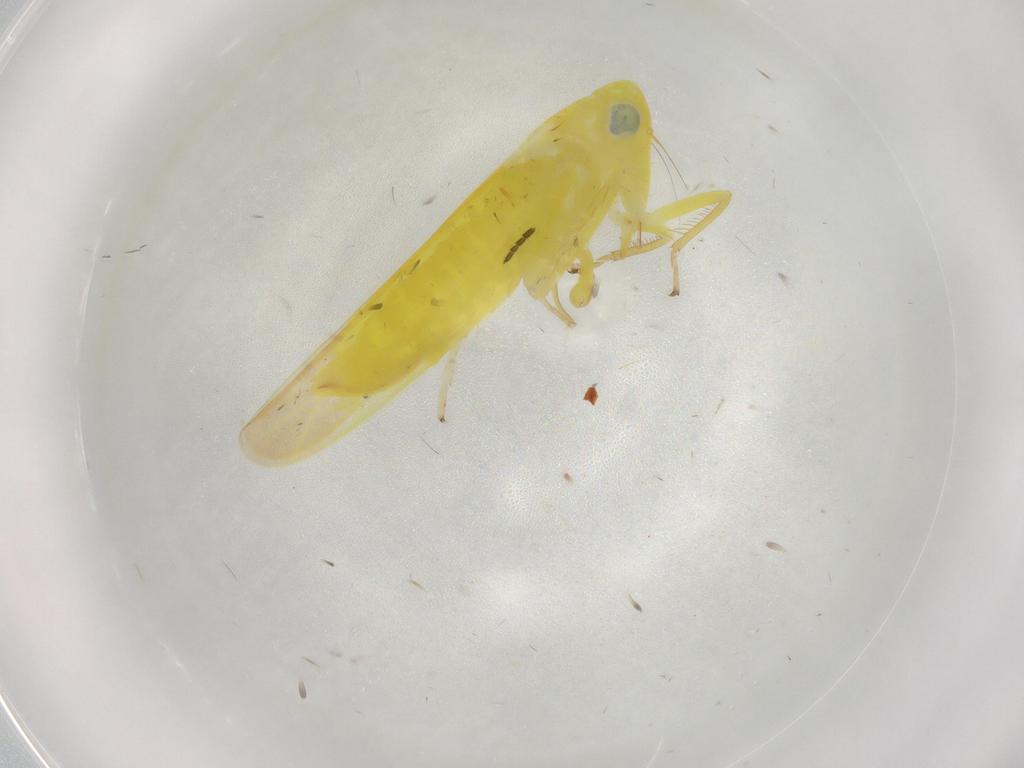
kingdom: Animalia
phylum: Arthropoda
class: Insecta
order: Hemiptera
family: Cicadellidae
